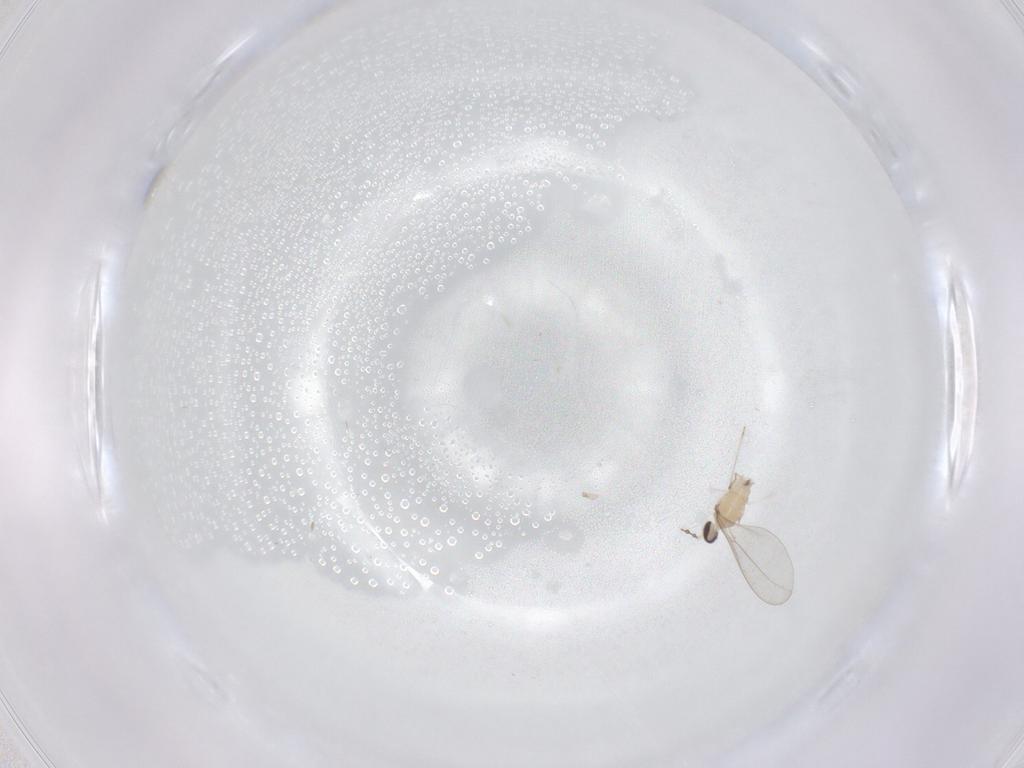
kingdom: Animalia
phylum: Arthropoda
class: Insecta
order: Diptera
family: Cecidomyiidae
